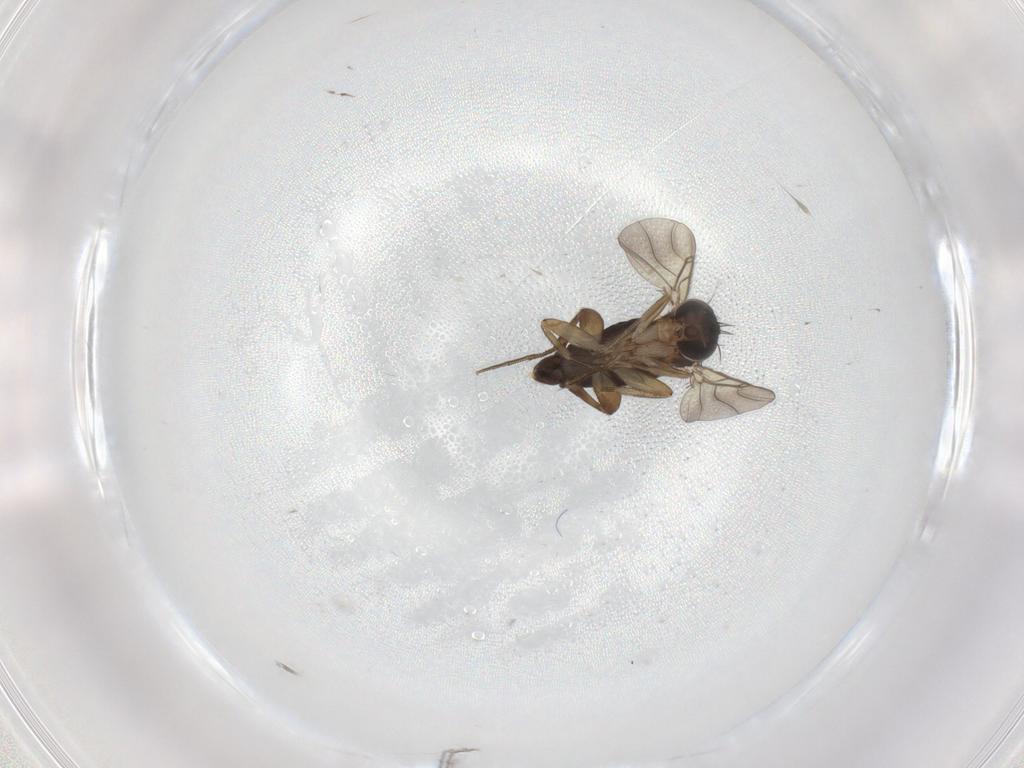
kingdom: Animalia
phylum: Arthropoda
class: Insecta
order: Diptera
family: Phoridae
